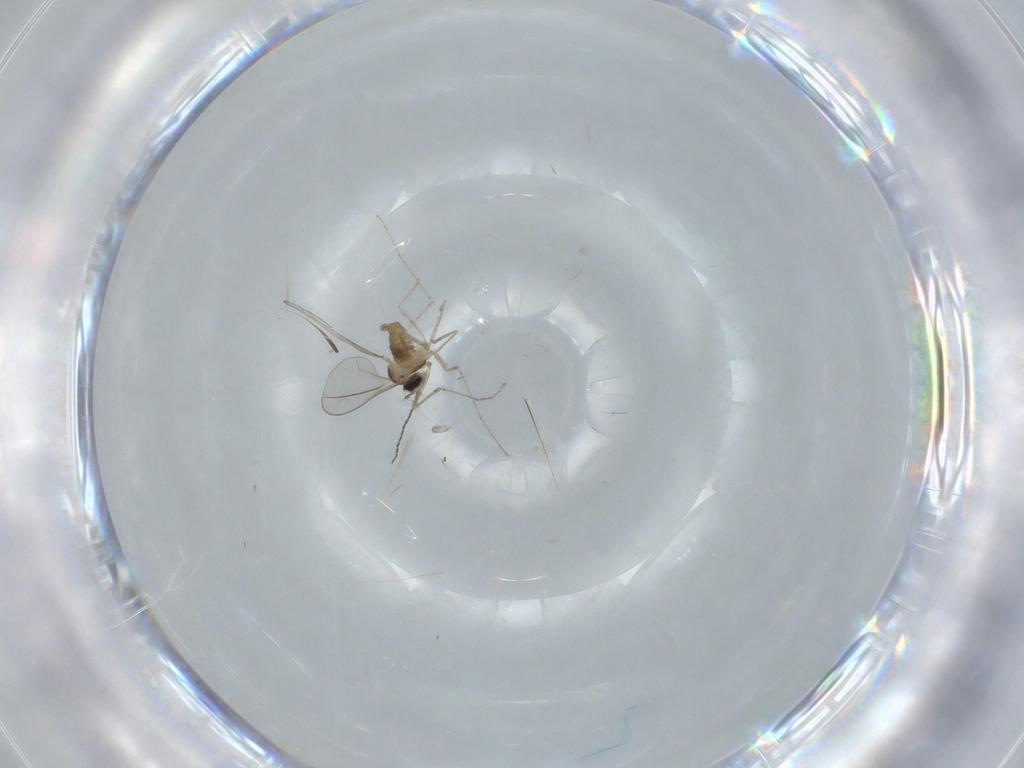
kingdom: Animalia
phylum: Arthropoda
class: Insecta
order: Diptera
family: Cecidomyiidae
